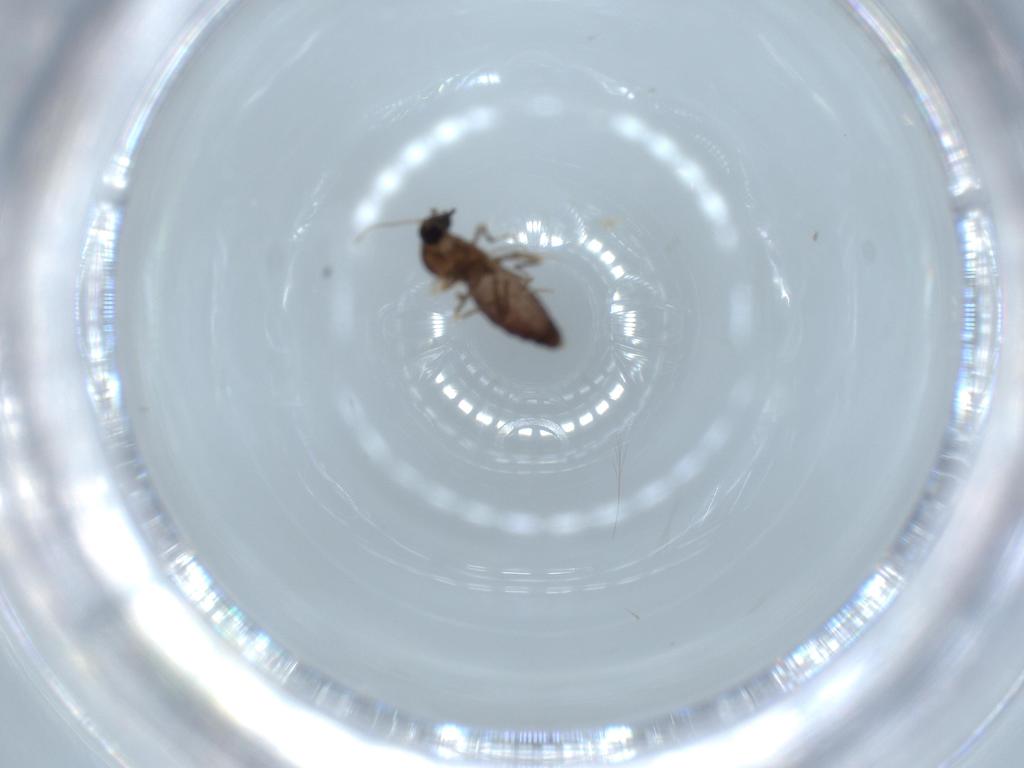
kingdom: Animalia
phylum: Arthropoda
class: Insecta
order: Diptera
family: Ceratopogonidae
